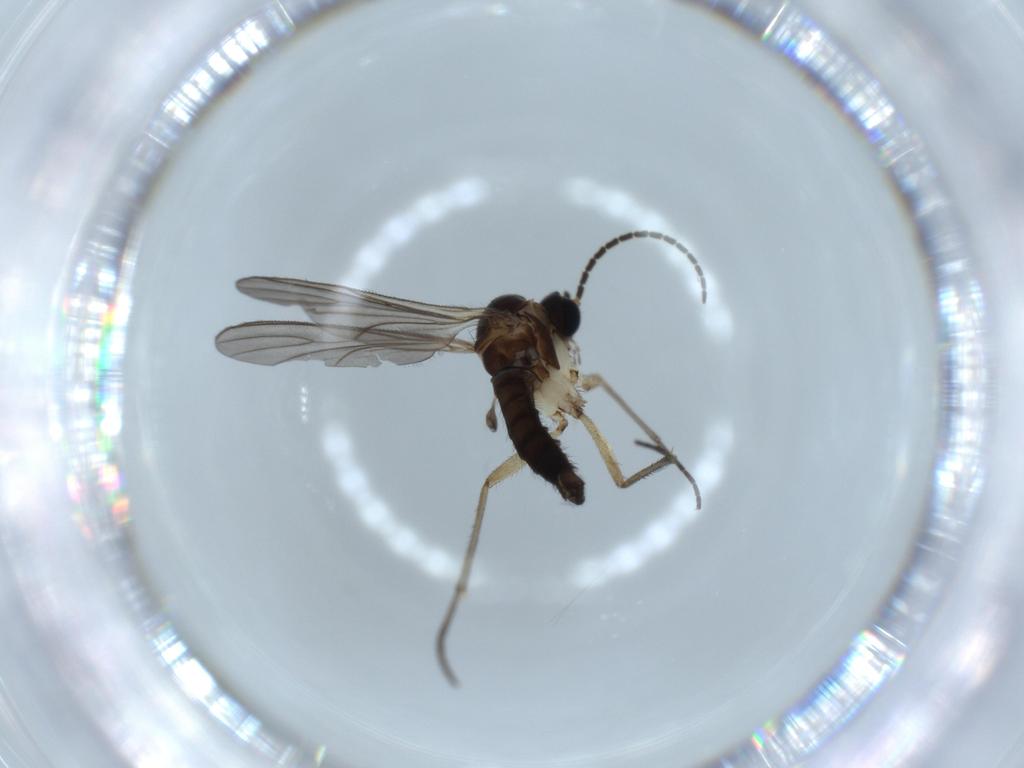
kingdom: Animalia
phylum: Arthropoda
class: Insecta
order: Diptera
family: Sciaridae
